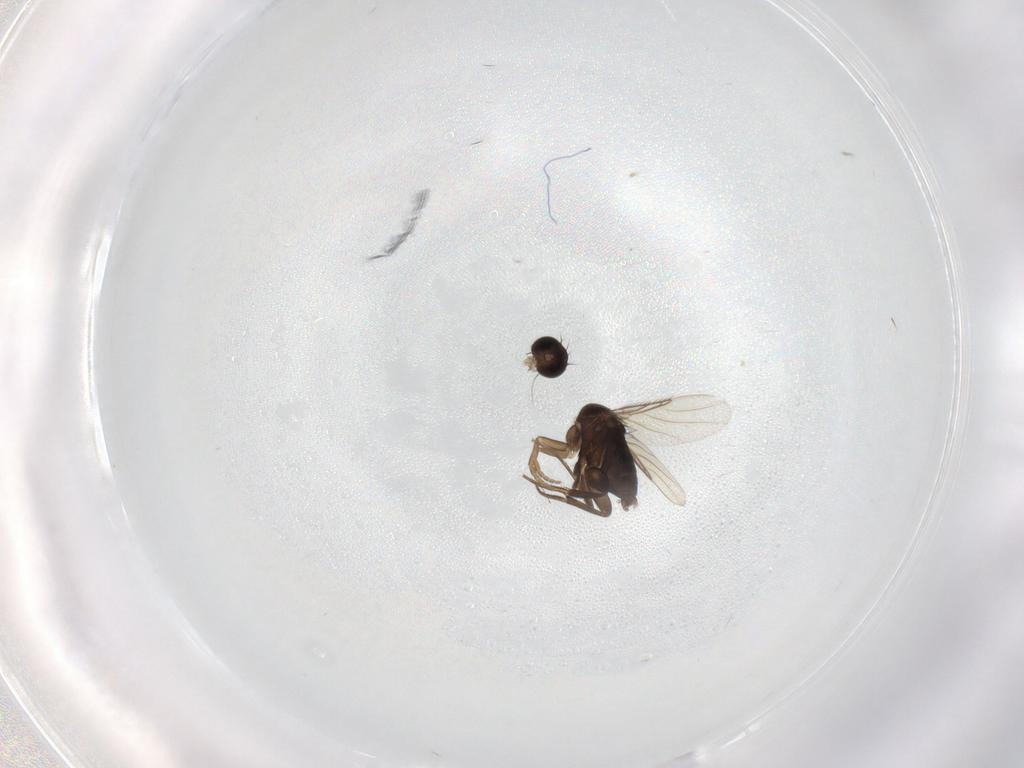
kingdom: Animalia
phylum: Arthropoda
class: Insecta
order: Diptera
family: Phoridae
